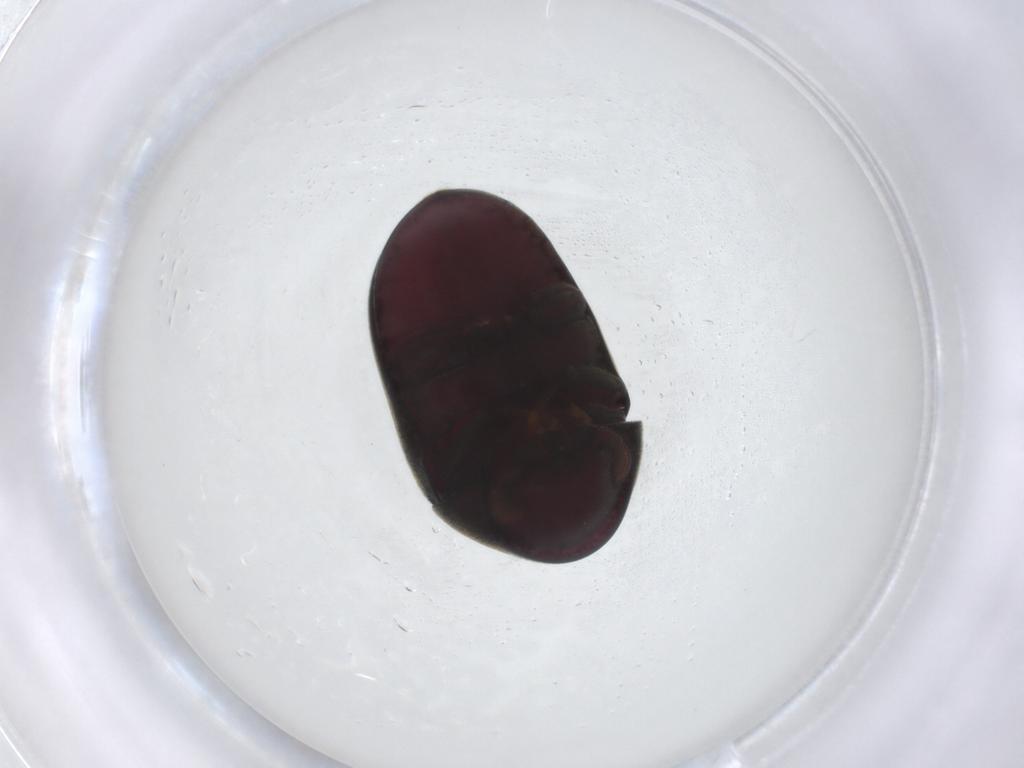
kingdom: Animalia
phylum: Arthropoda
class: Insecta
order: Coleoptera
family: Ptinidae
